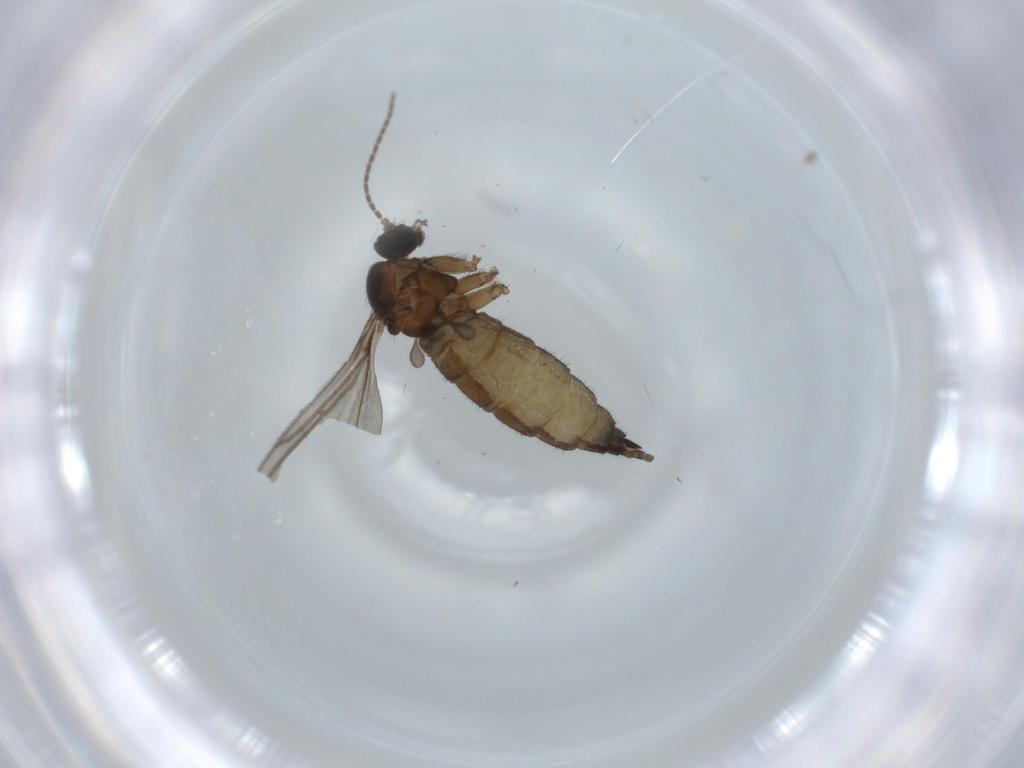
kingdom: Animalia
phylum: Arthropoda
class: Insecta
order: Diptera
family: Sciaridae
